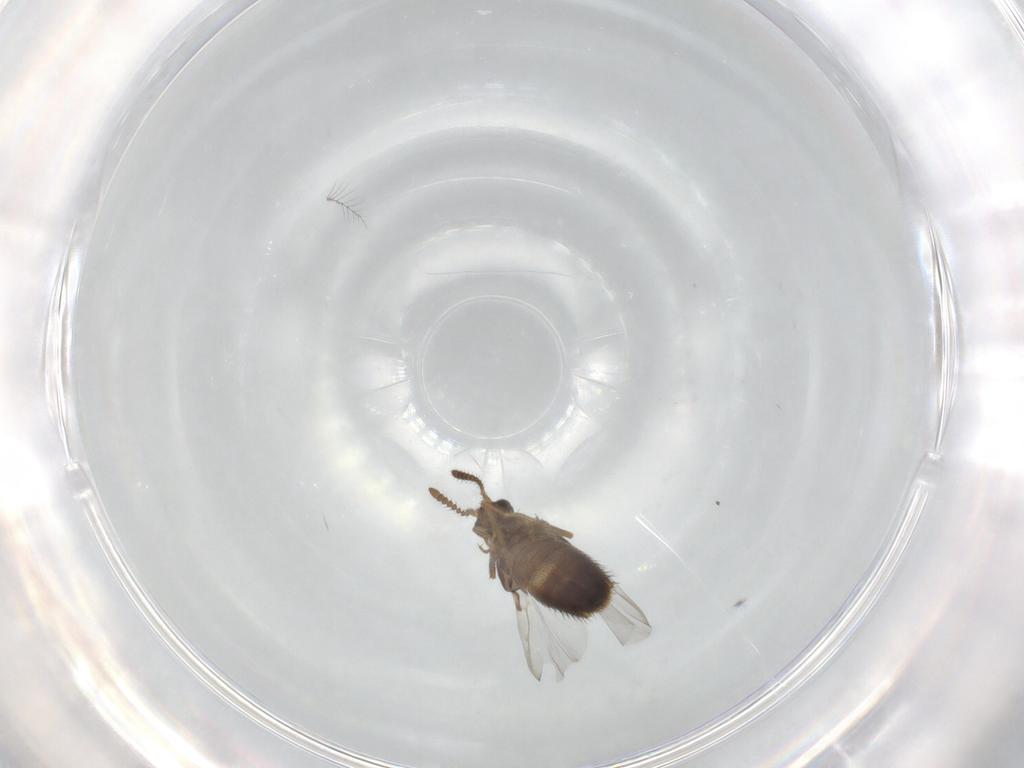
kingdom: Animalia
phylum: Arthropoda
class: Insecta
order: Coleoptera
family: Staphylinidae
